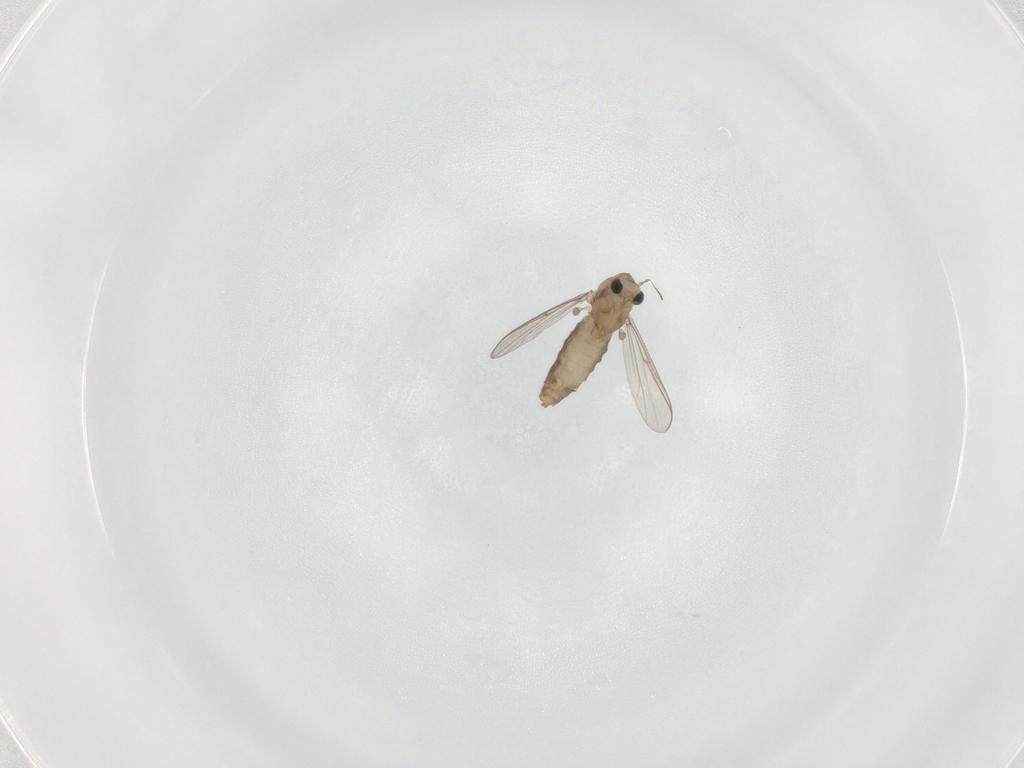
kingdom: Animalia
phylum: Arthropoda
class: Insecta
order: Diptera
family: Chironomidae
